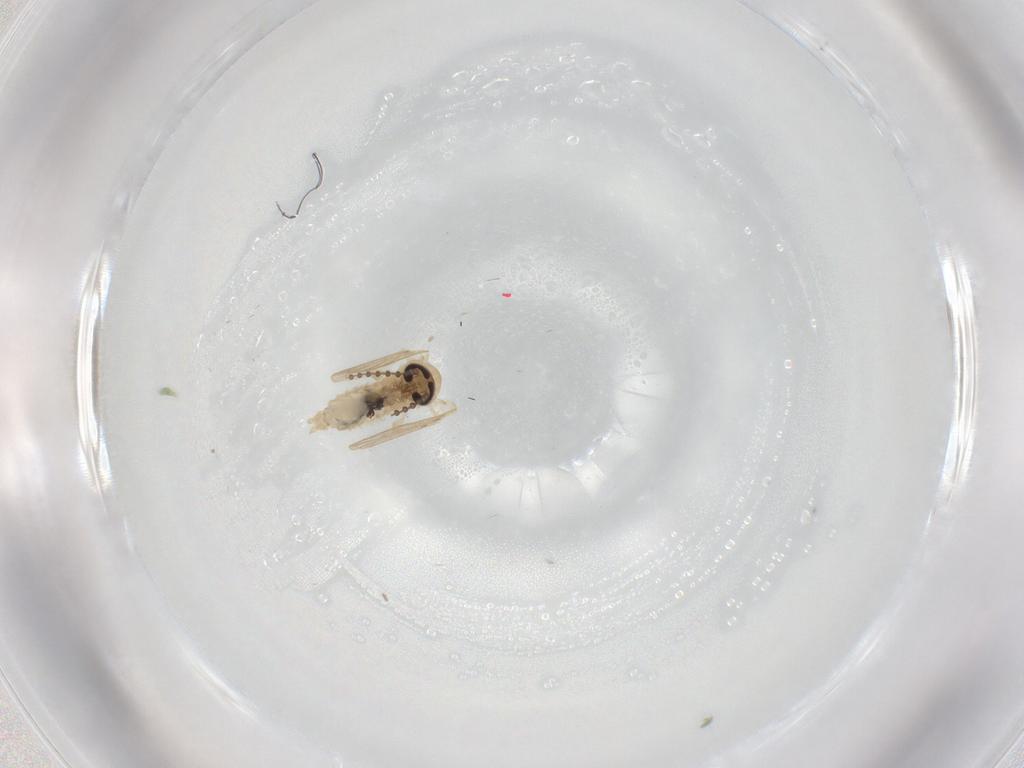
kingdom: Animalia
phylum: Arthropoda
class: Insecta
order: Diptera
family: Psychodidae
